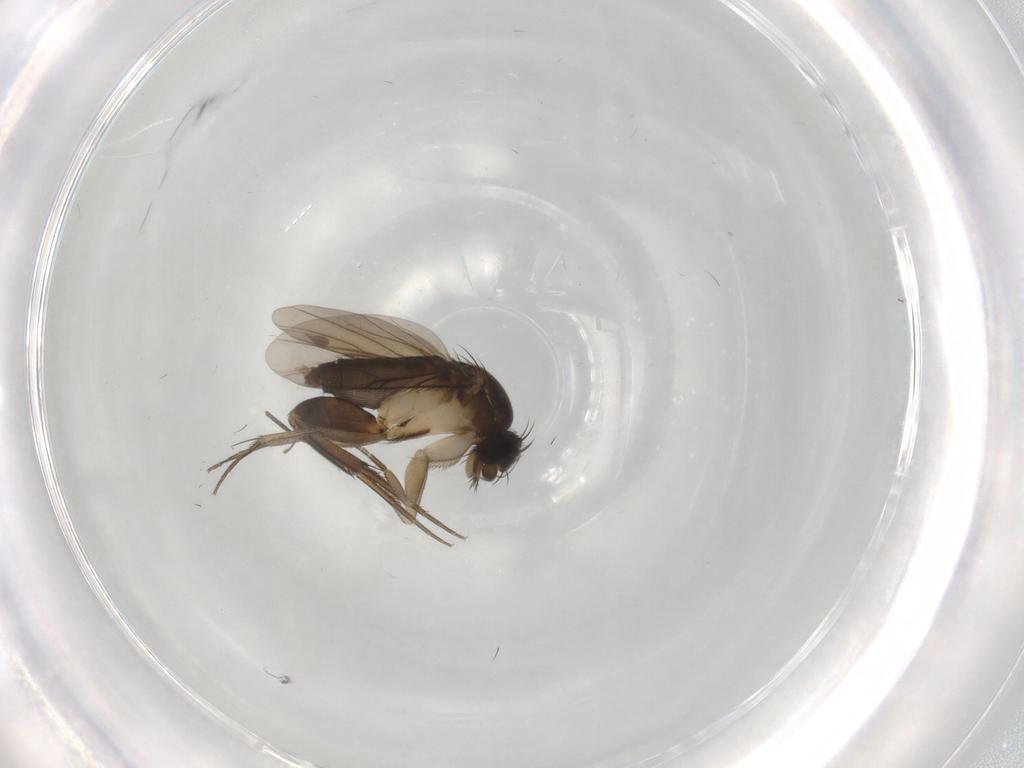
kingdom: Animalia
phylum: Arthropoda
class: Insecta
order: Diptera
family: Phoridae
